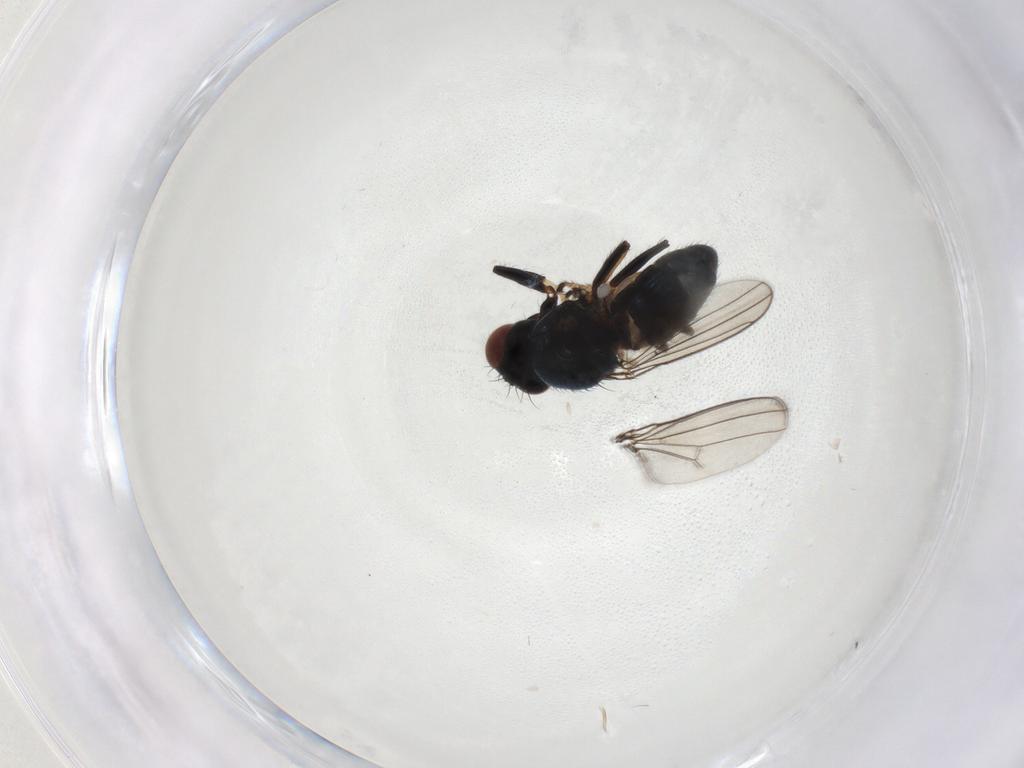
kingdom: Animalia
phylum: Arthropoda
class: Insecta
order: Diptera
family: Ephydridae
